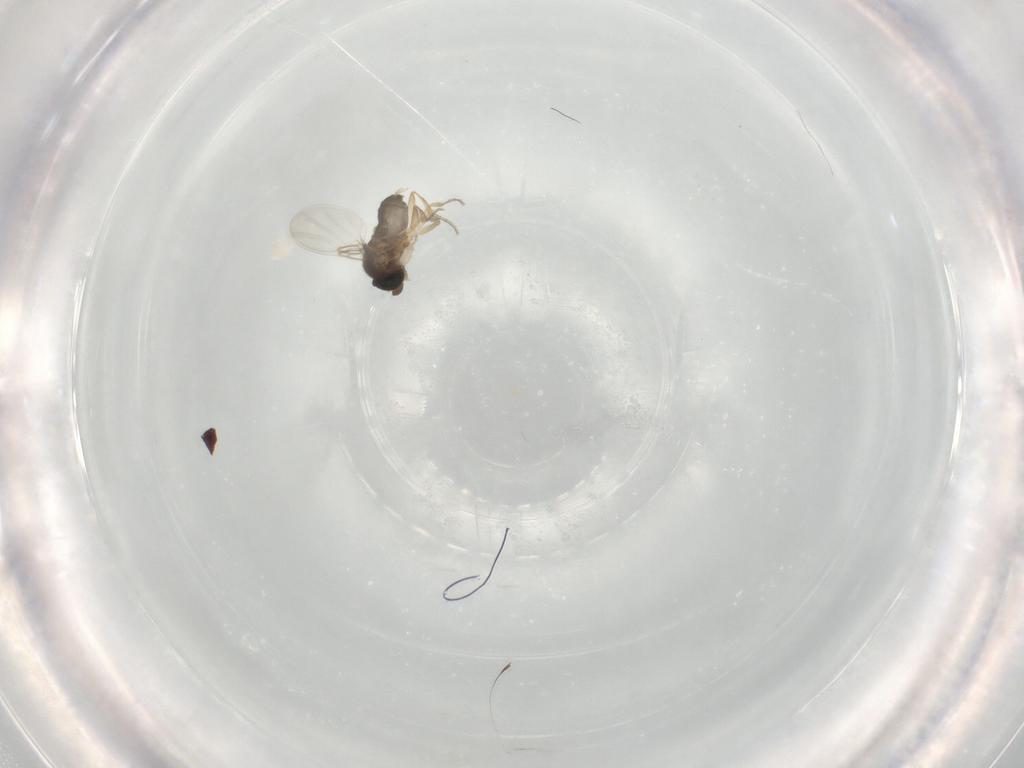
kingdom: Animalia
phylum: Arthropoda
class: Insecta
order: Diptera
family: Phoridae
